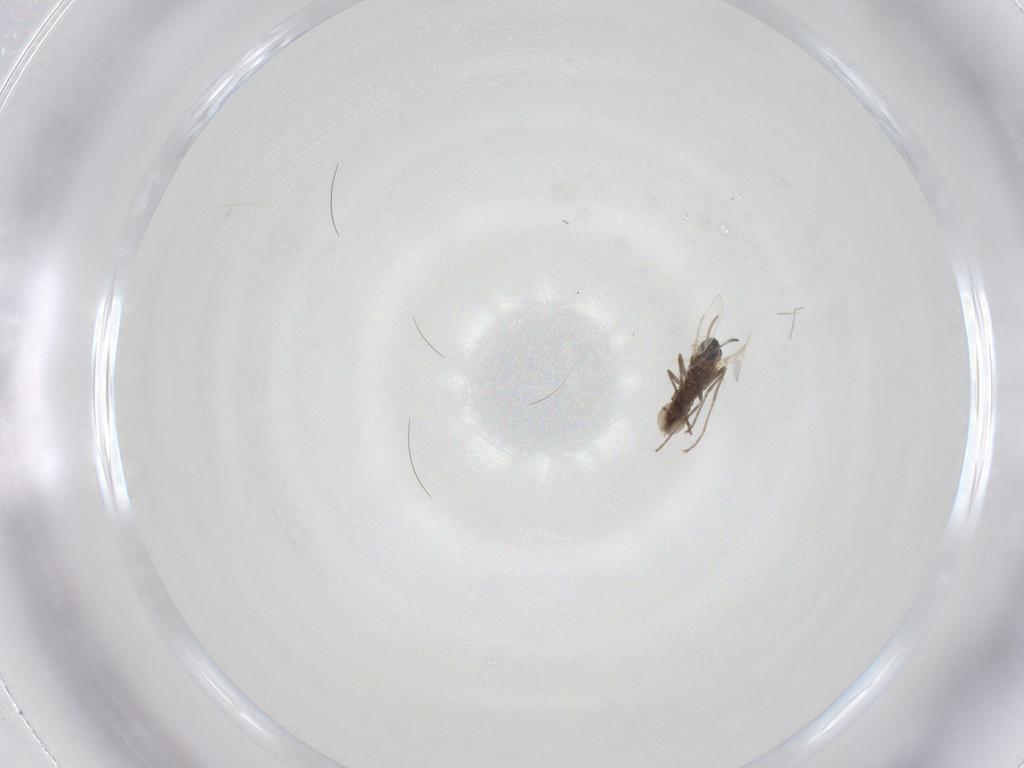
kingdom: Animalia
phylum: Arthropoda
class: Insecta
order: Diptera
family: Cecidomyiidae
